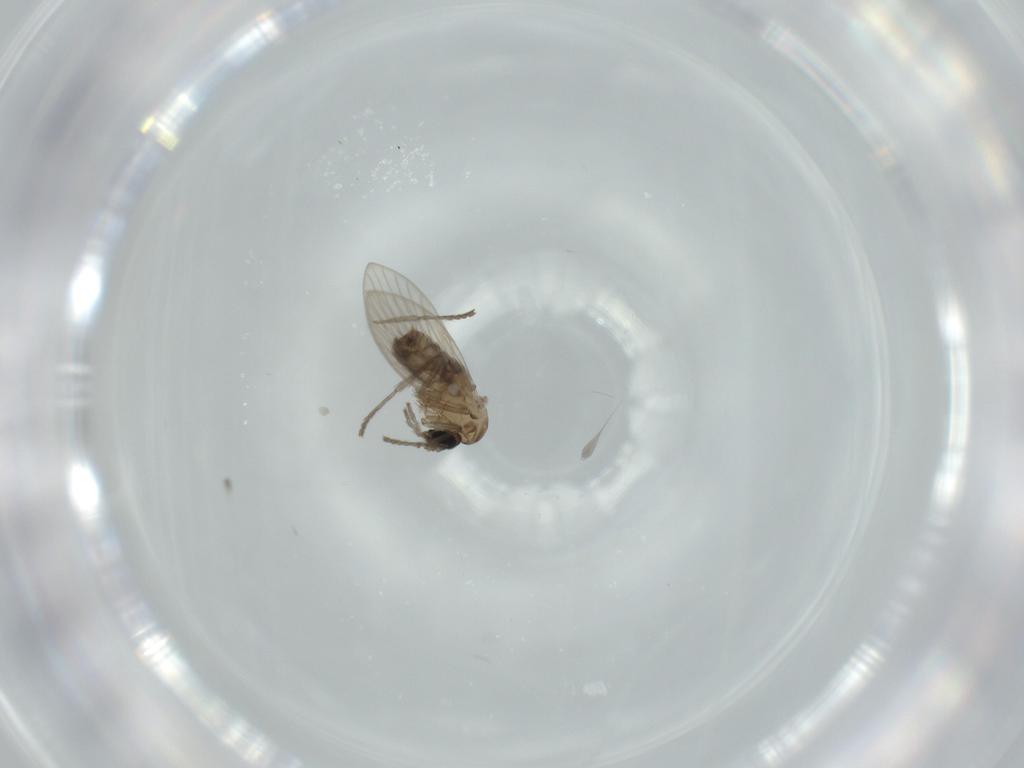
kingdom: Animalia
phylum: Arthropoda
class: Insecta
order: Diptera
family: Psychodidae
